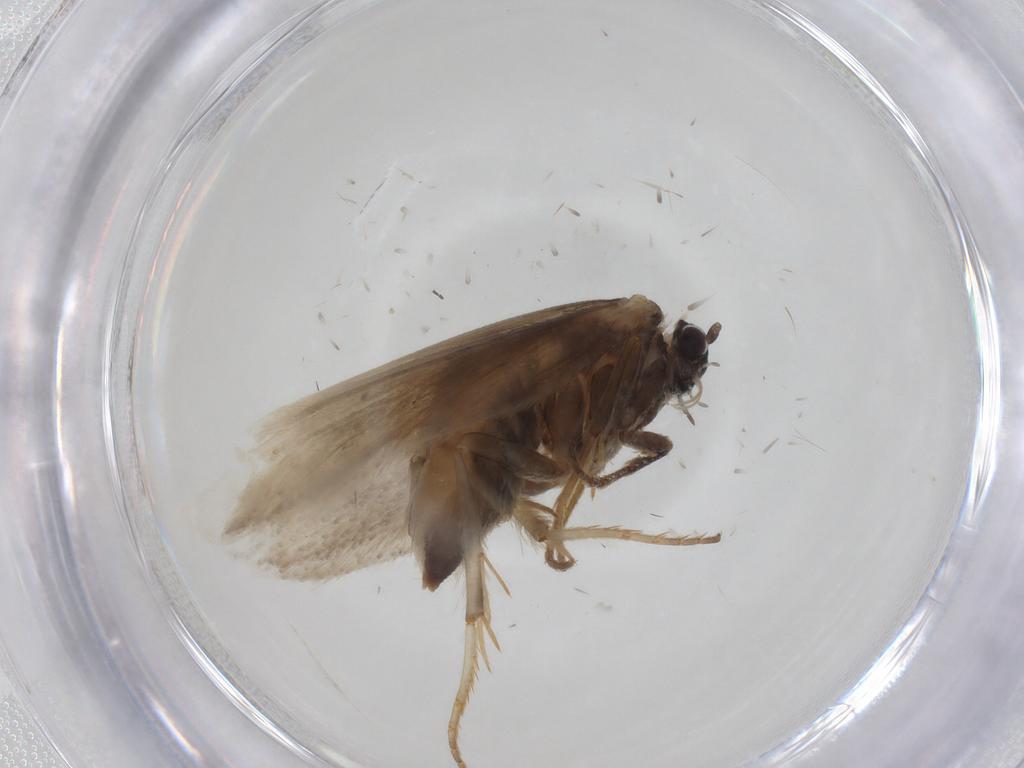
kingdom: Animalia
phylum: Arthropoda
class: Insecta
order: Lepidoptera
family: Tridentaformidae
